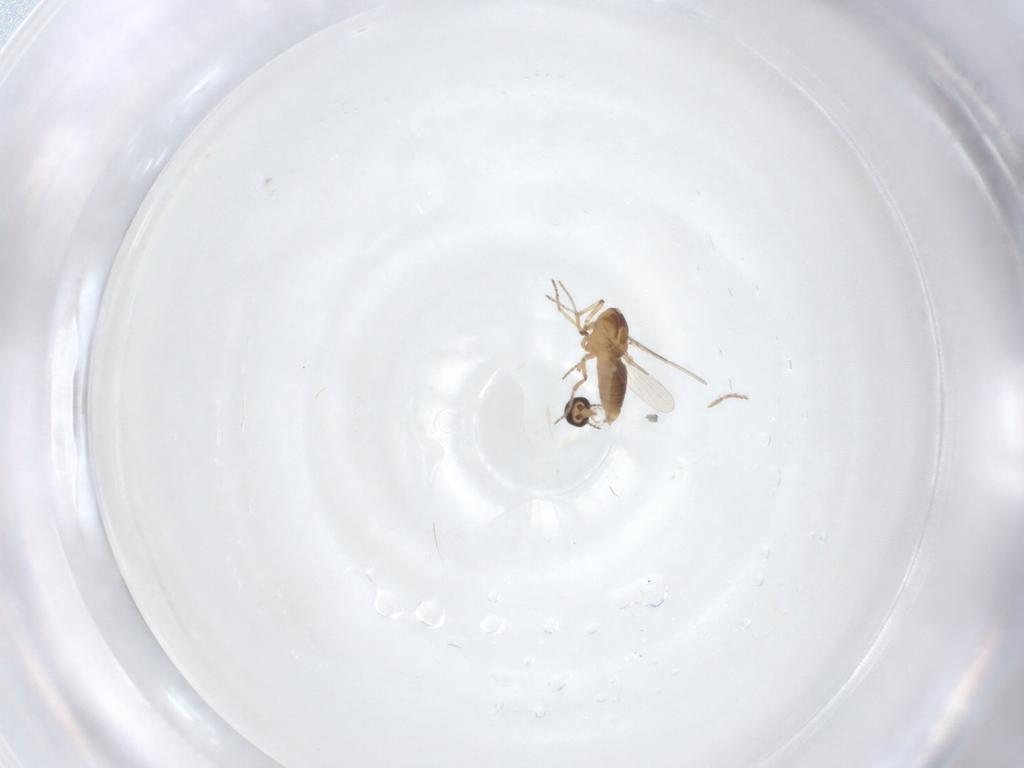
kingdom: Animalia
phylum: Arthropoda
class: Insecta
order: Diptera
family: Ceratopogonidae
